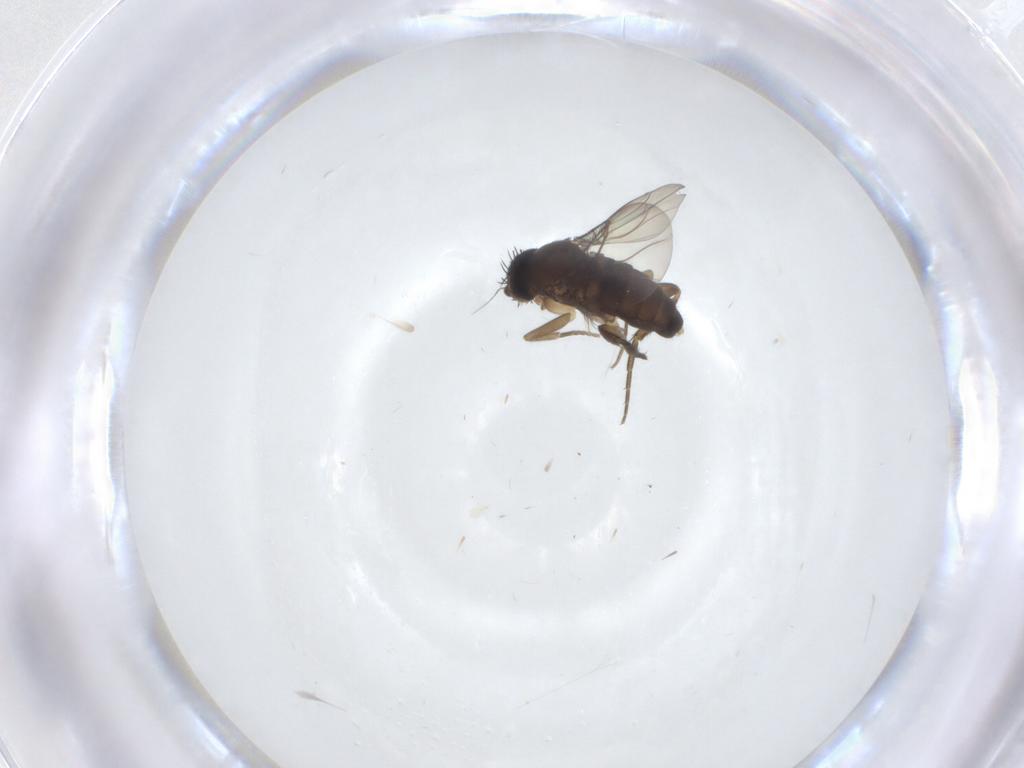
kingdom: Animalia
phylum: Arthropoda
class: Insecta
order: Diptera
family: Phoridae
